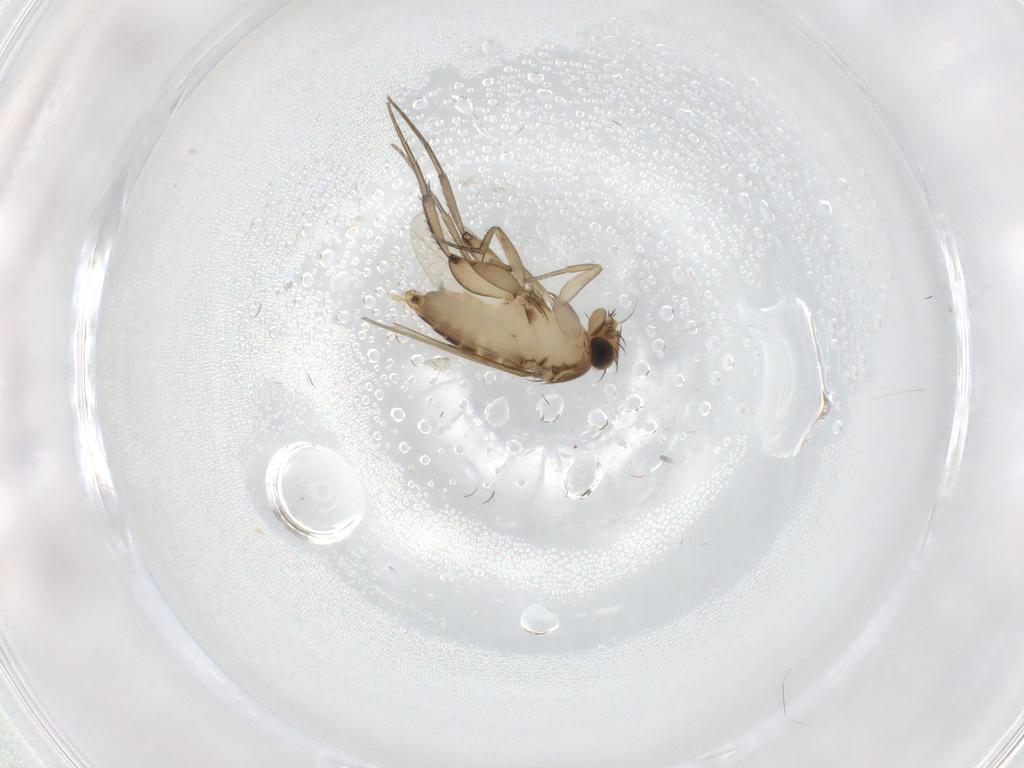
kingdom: Animalia
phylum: Arthropoda
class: Insecta
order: Diptera
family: Phoridae
